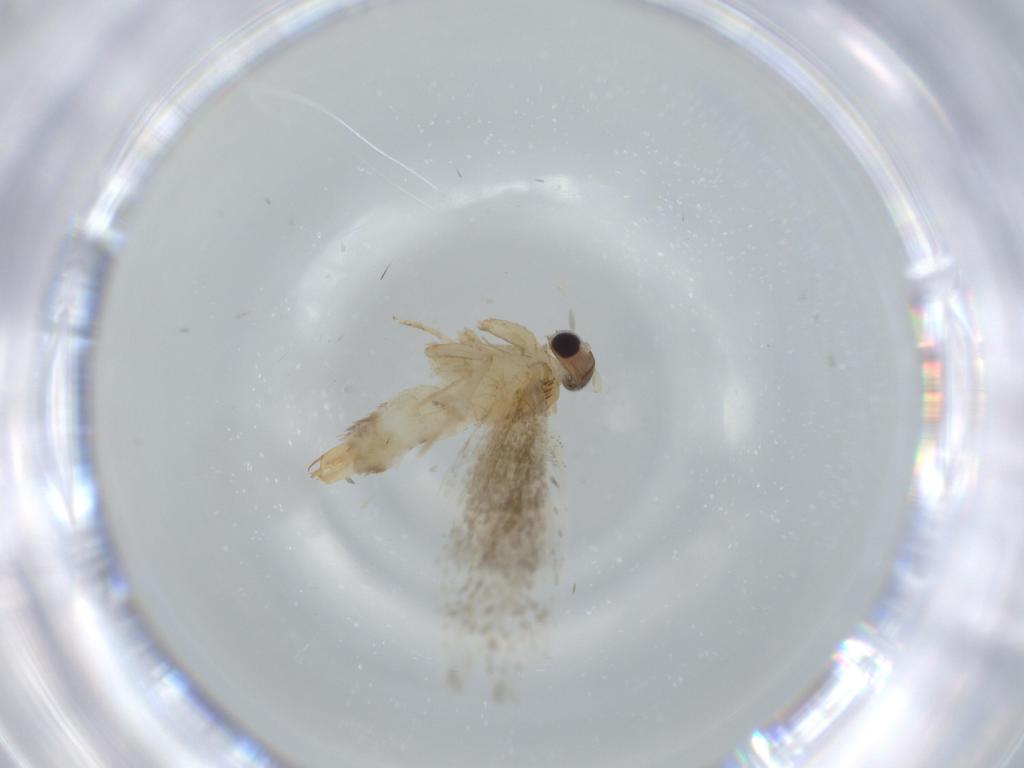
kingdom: Animalia
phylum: Arthropoda
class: Insecta
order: Lepidoptera
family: Tineidae
